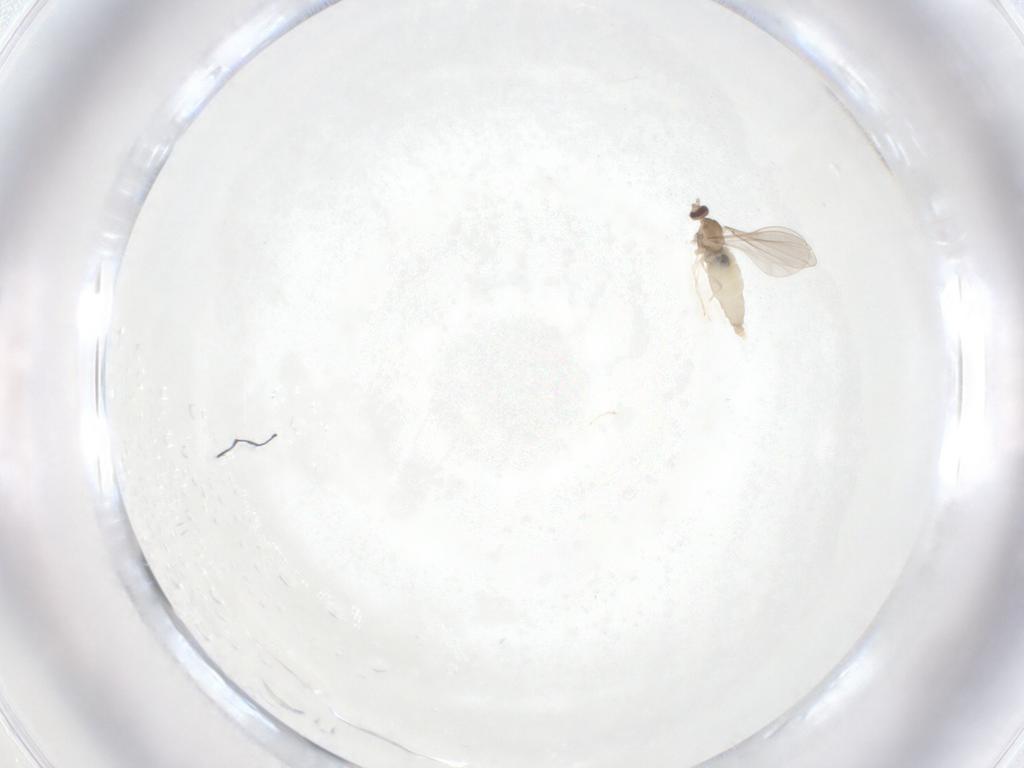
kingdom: Animalia
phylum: Arthropoda
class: Insecta
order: Diptera
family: Cecidomyiidae
